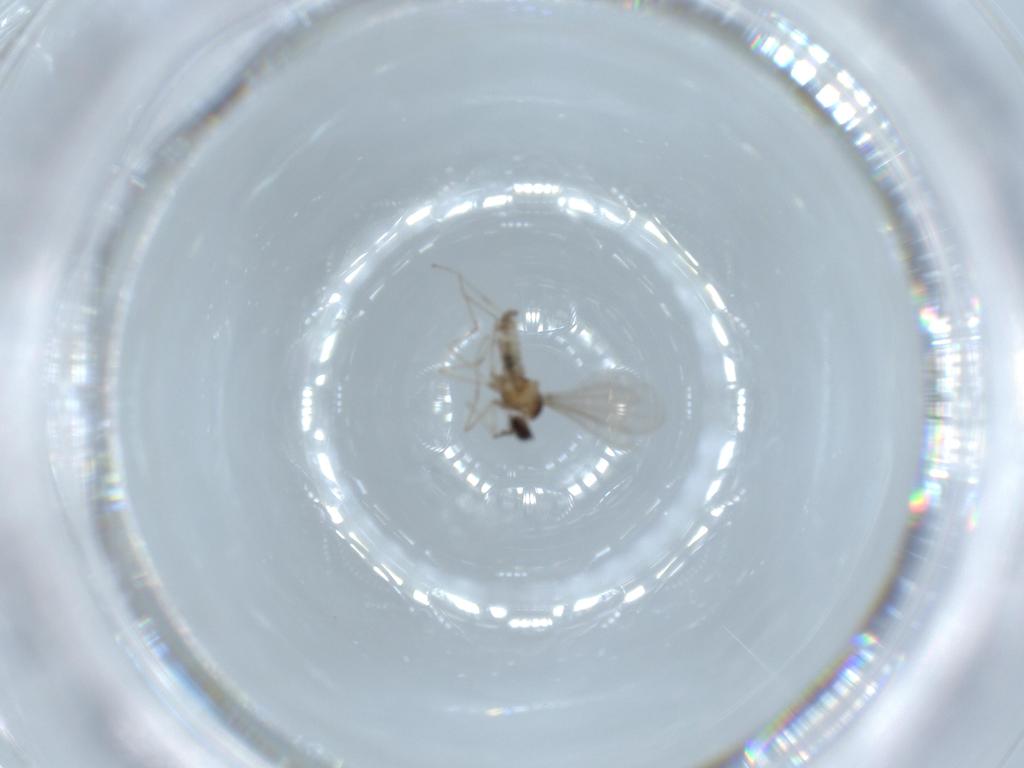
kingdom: Animalia
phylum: Arthropoda
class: Insecta
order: Diptera
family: Cecidomyiidae
